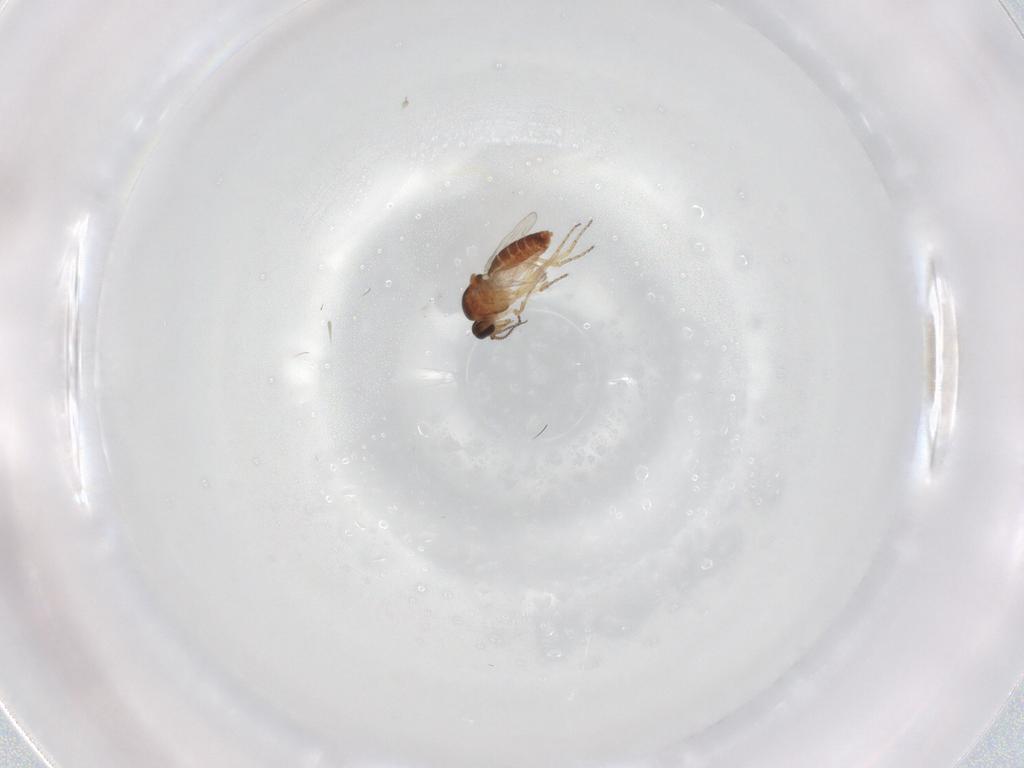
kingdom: Animalia
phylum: Arthropoda
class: Insecta
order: Diptera
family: Ceratopogonidae
